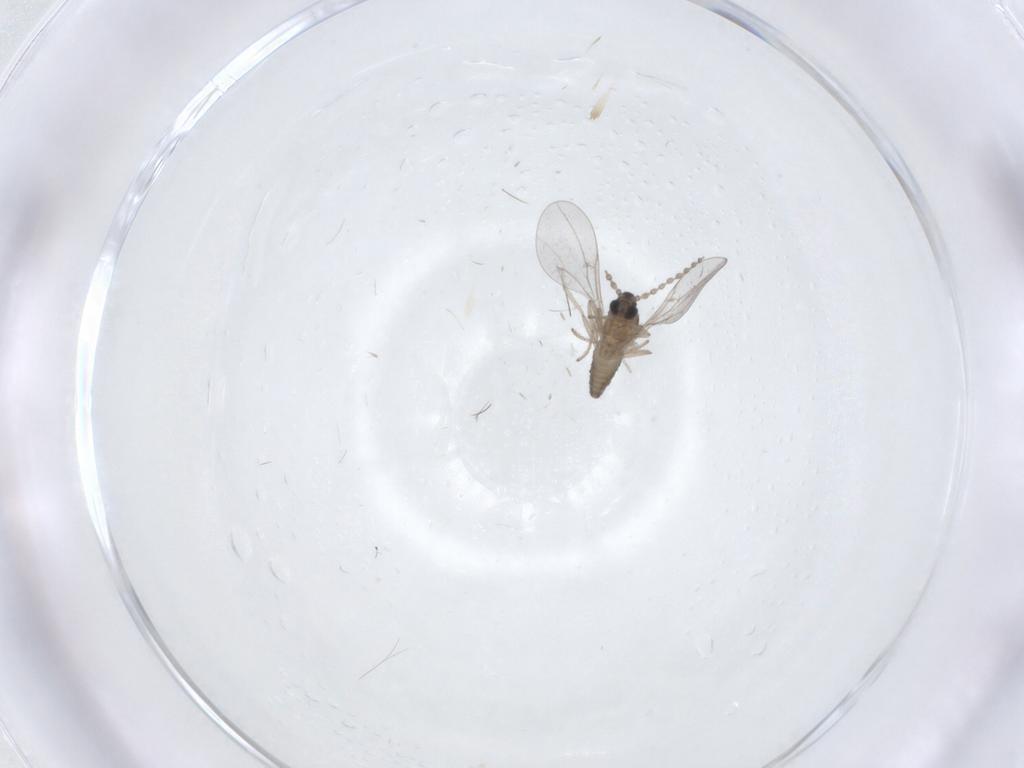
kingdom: Animalia
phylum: Arthropoda
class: Insecta
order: Diptera
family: Cecidomyiidae
